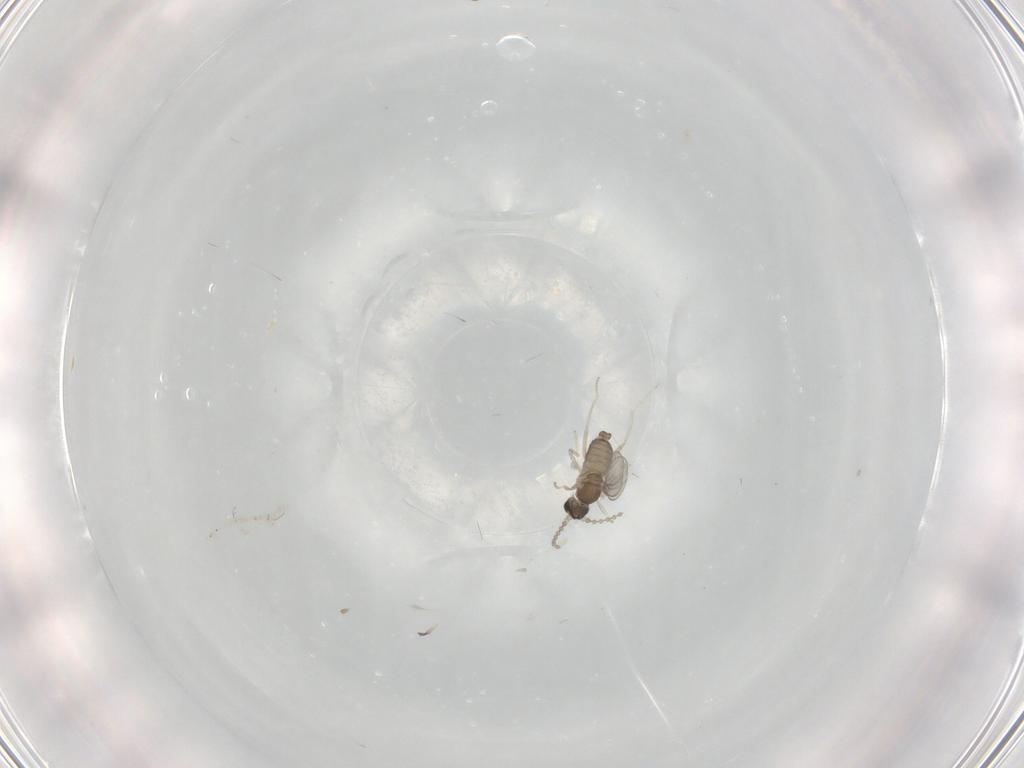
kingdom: Animalia
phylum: Arthropoda
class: Insecta
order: Diptera
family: Cecidomyiidae
